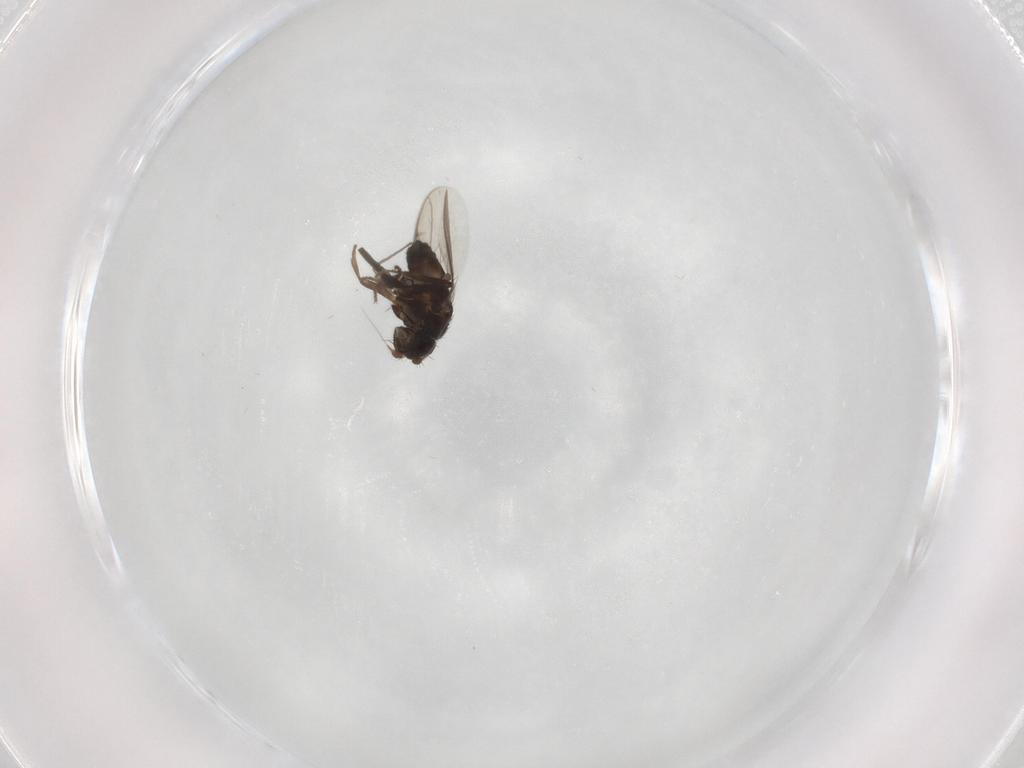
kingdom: Animalia
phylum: Arthropoda
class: Insecta
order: Diptera
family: Sphaeroceridae
